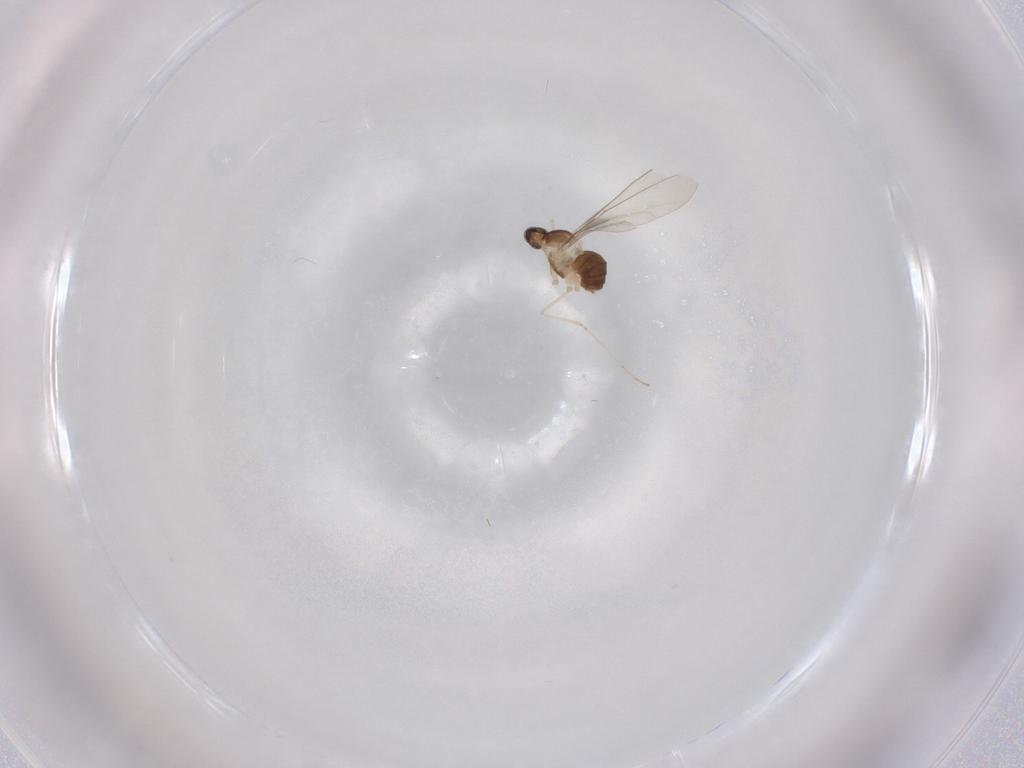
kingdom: Animalia
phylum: Arthropoda
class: Insecta
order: Diptera
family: Cecidomyiidae
